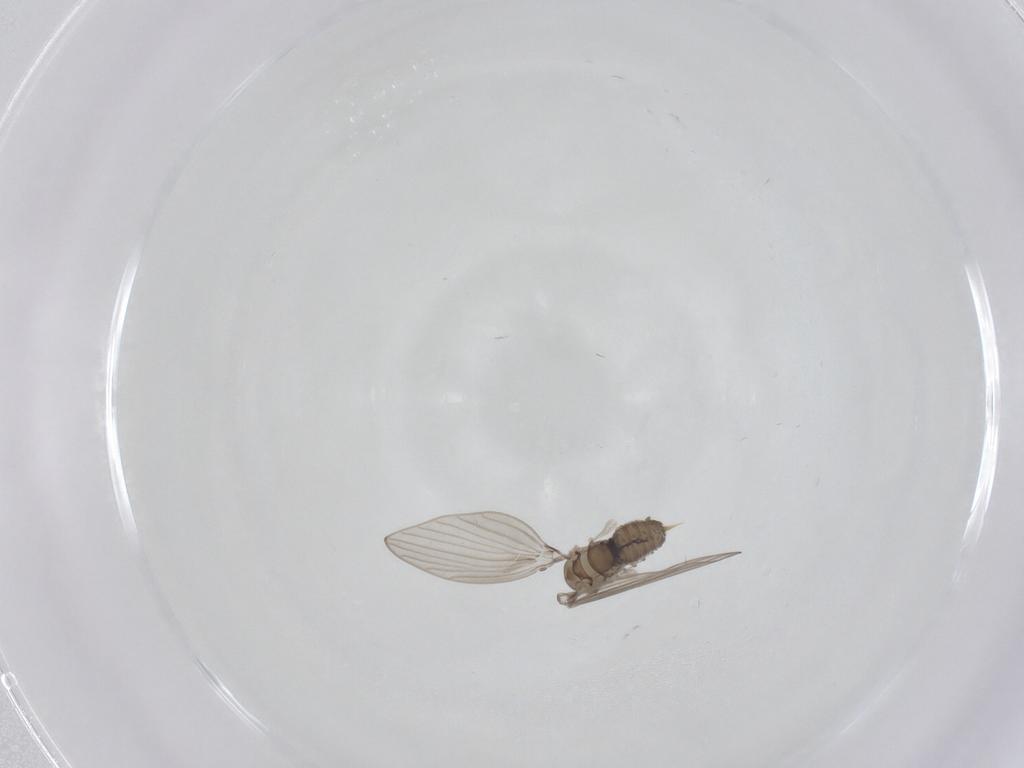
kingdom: Animalia
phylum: Arthropoda
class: Insecta
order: Diptera
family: Psychodidae
